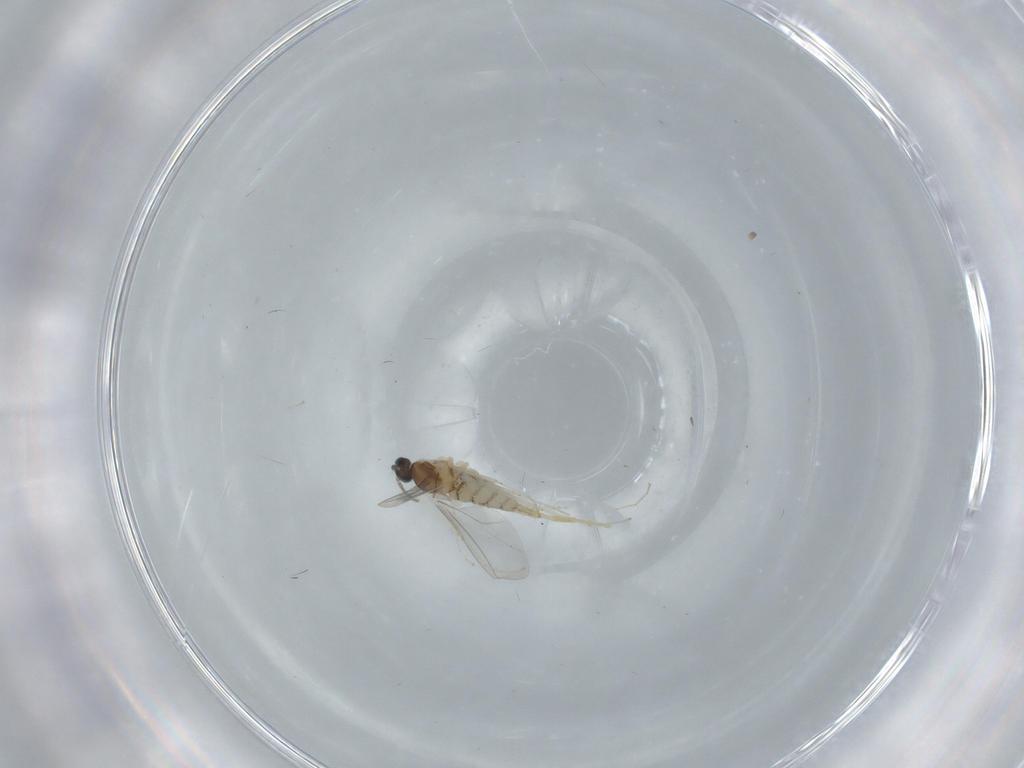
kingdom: Animalia
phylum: Arthropoda
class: Insecta
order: Diptera
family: Cecidomyiidae
